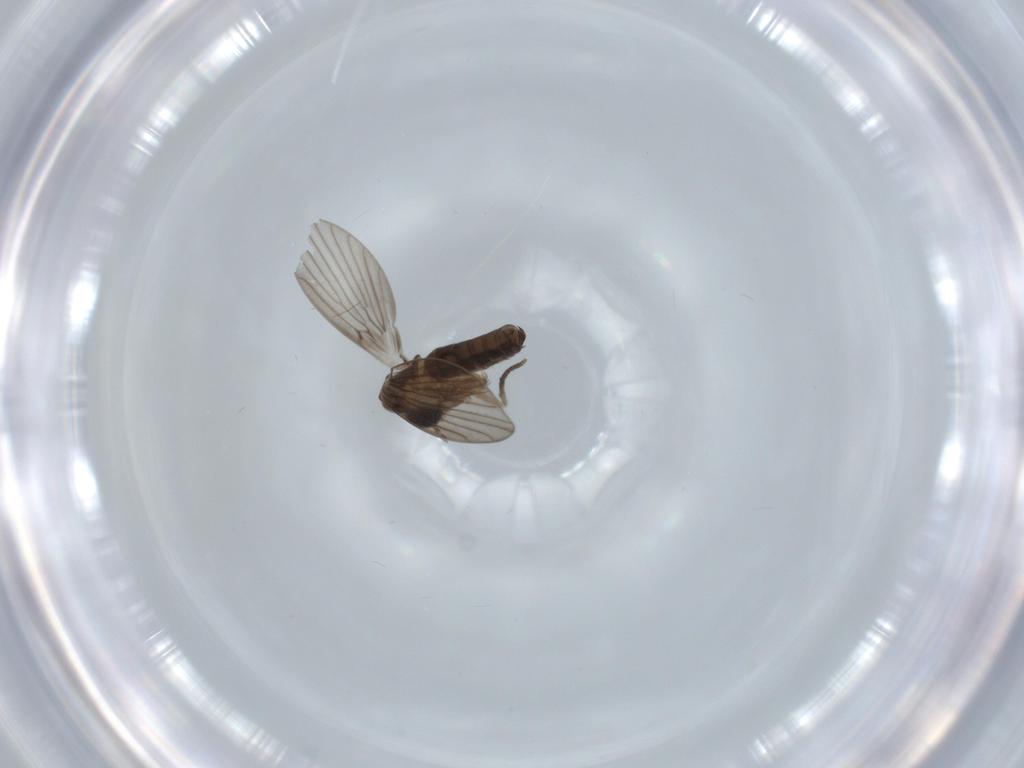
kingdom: Animalia
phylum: Arthropoda
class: Insecta
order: Diptera
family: Psychodidae
